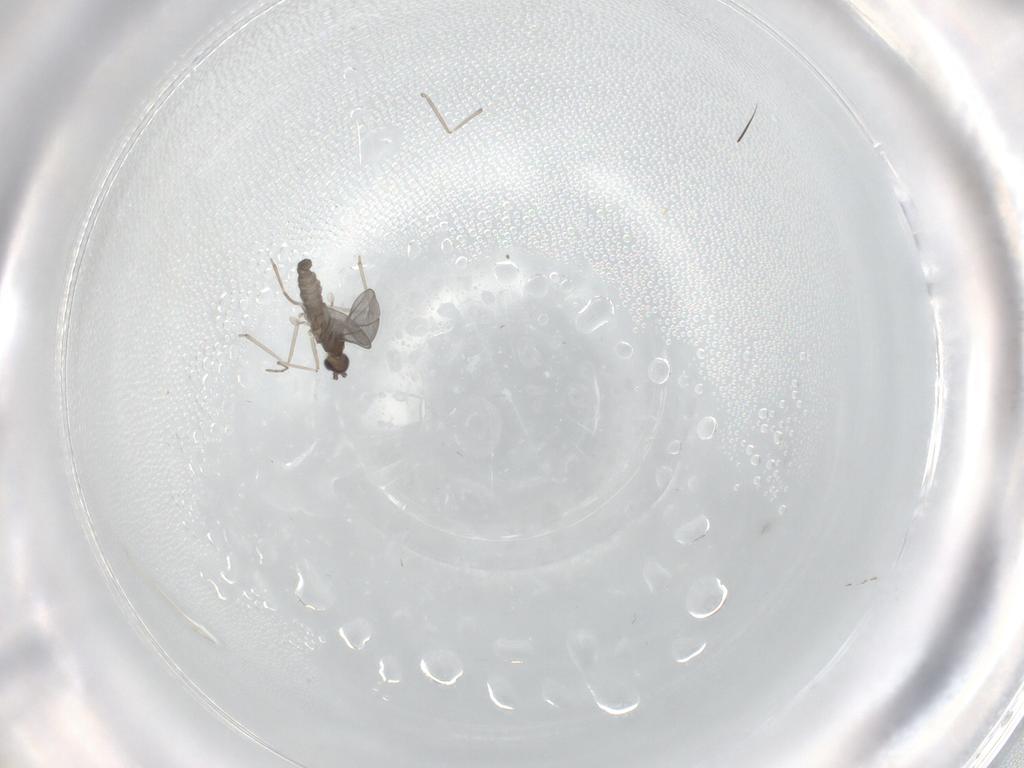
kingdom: Animalia
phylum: Arthropoda
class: Insecta
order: Diptera
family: Cecidomyiidae
